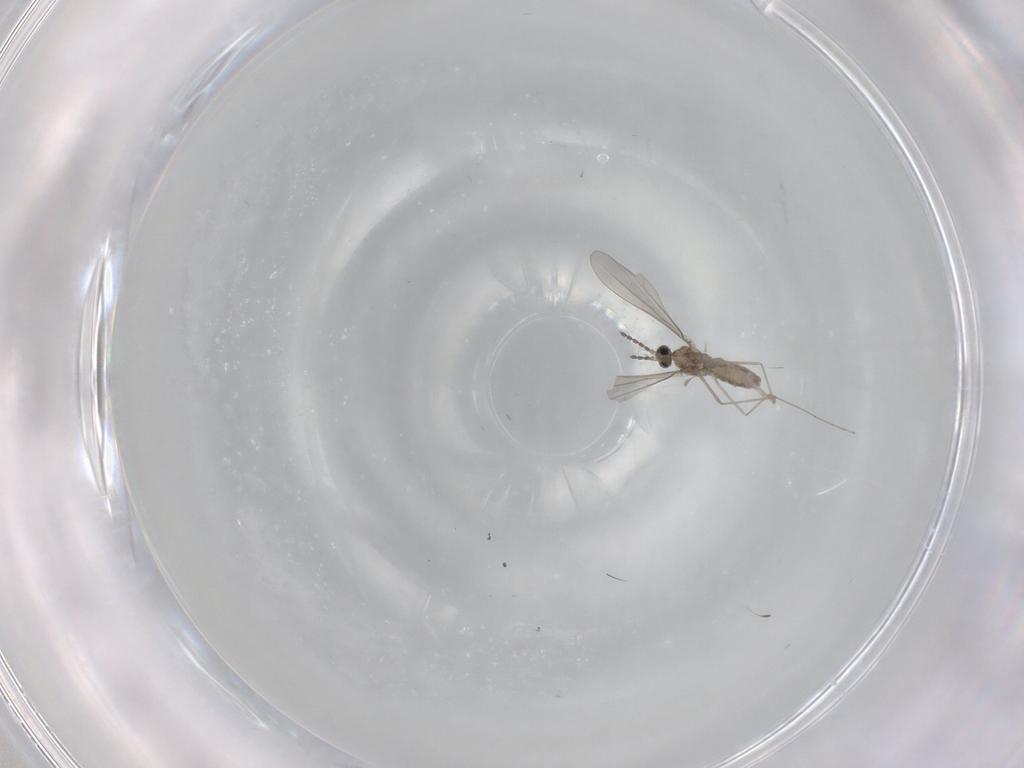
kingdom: Animalia
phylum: Arthropoda
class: Insecta
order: Diptera
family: Cecidomyiidae
